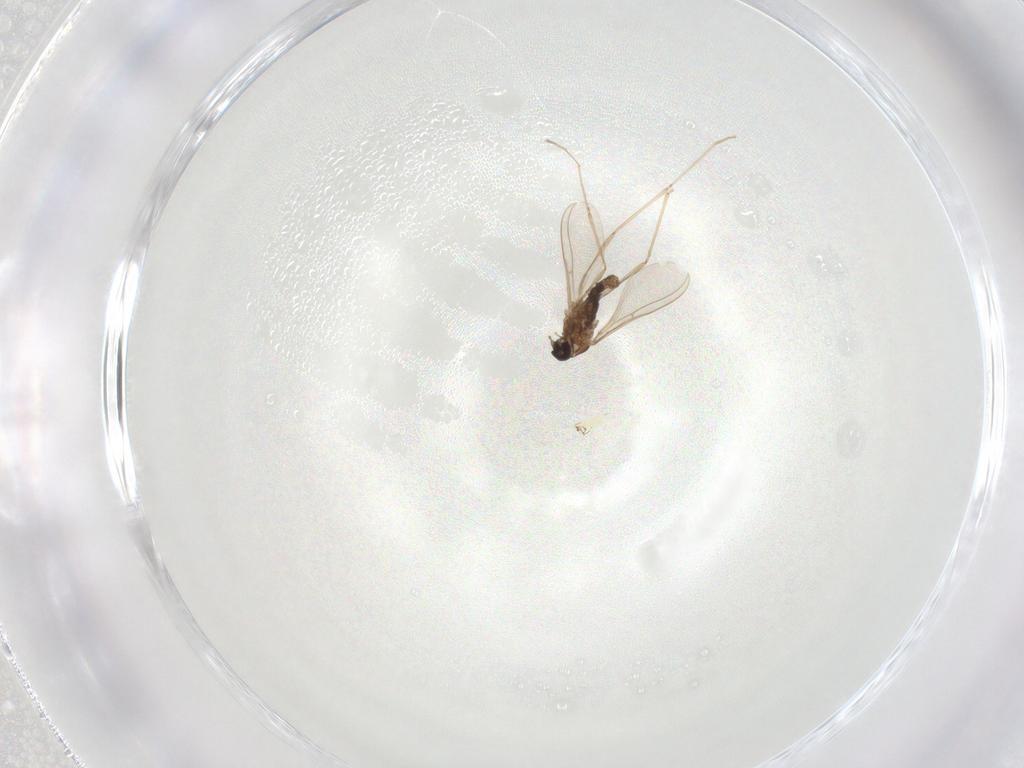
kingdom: Animalia
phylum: Arthropoda
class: Insecta
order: Diptera
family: Cecidomyiidae
